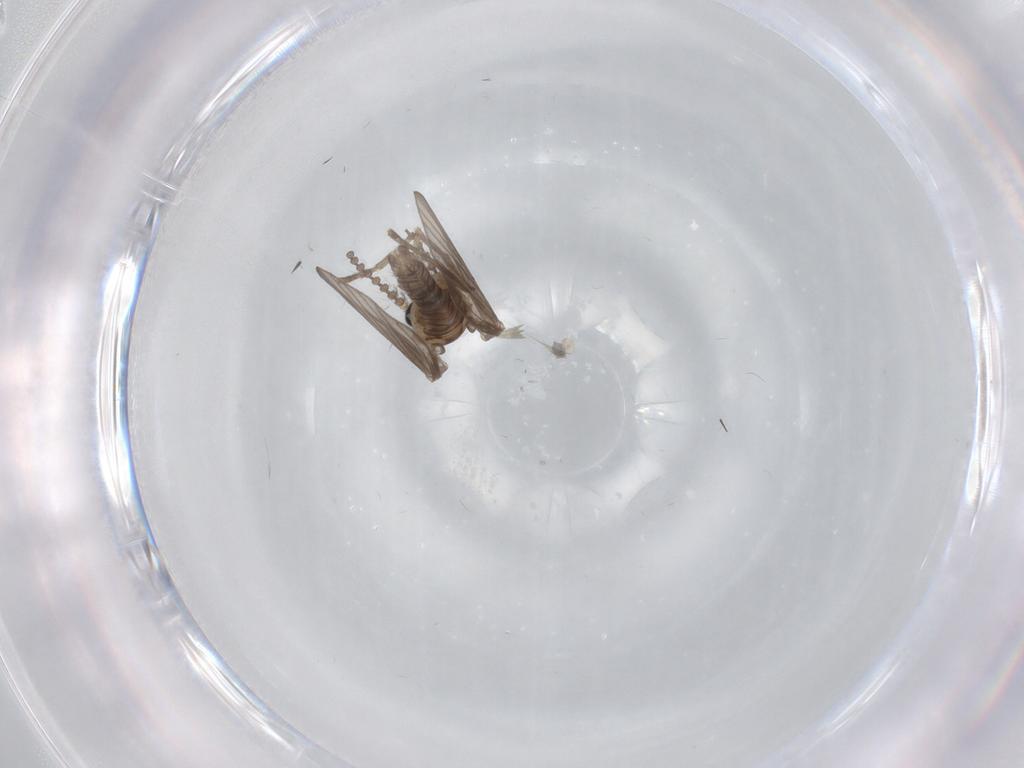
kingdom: Animalia
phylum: Arthropoda
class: Insecta
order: Diptera
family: Psychodidae
